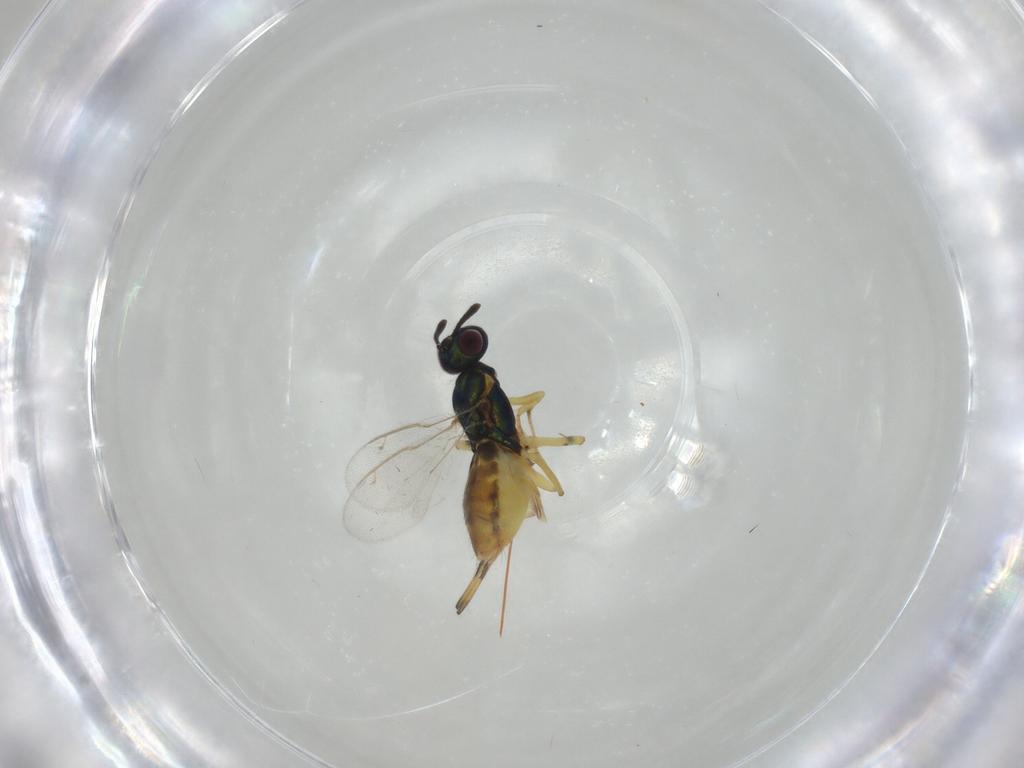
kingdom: Animalia
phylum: Arthropoda
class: Insecta
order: Hymenoptera
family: Eupelmidae
